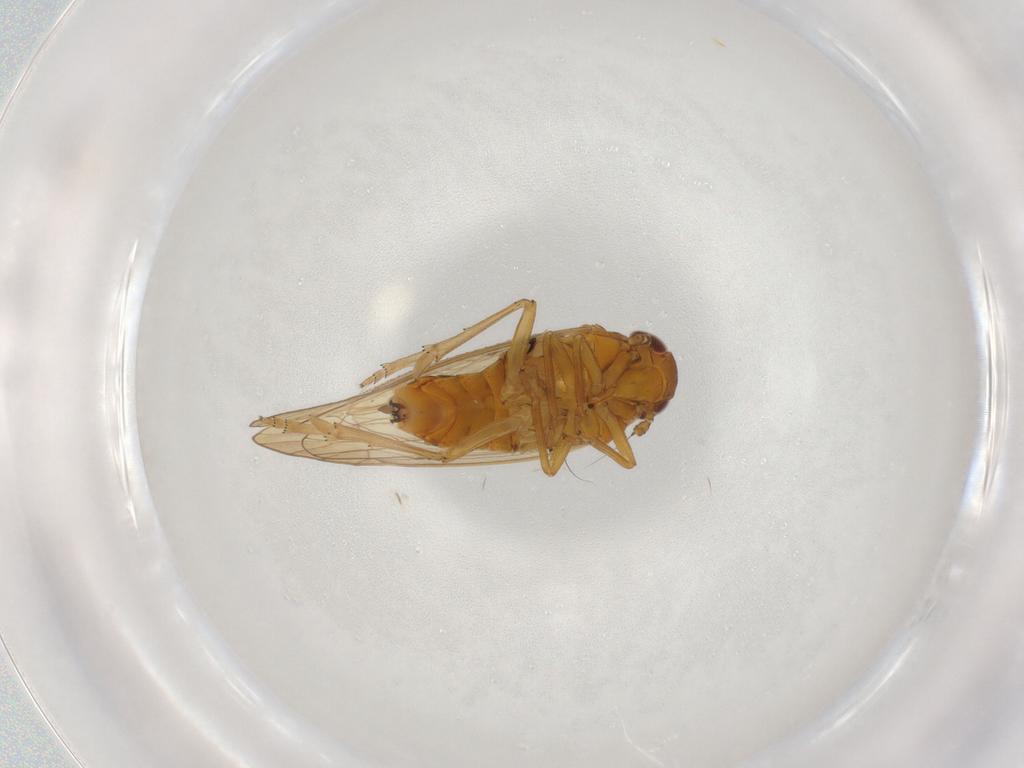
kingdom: Animalia
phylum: Arthropoda
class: Insecta
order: Hemiptera
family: Delphacidae
